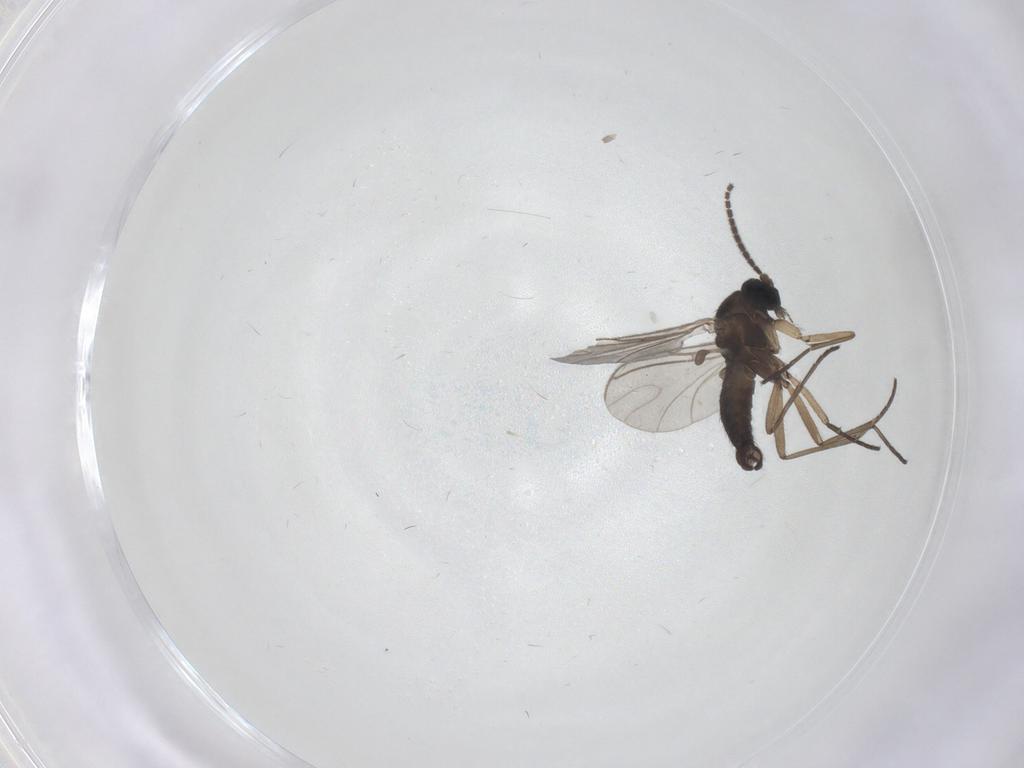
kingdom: Animalia
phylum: Arthropoda
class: Insecta
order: Diptera
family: Sciaridae
